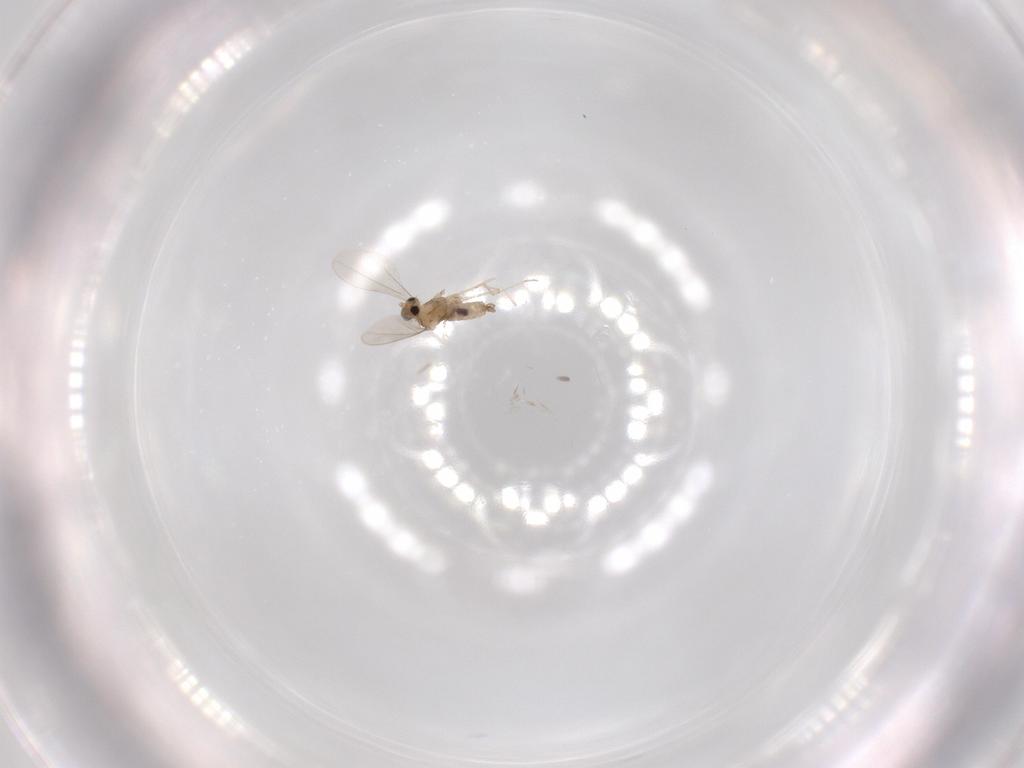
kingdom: Animalia
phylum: Arthropoda
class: Insecta
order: Diptera
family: Cecidomyiidae
